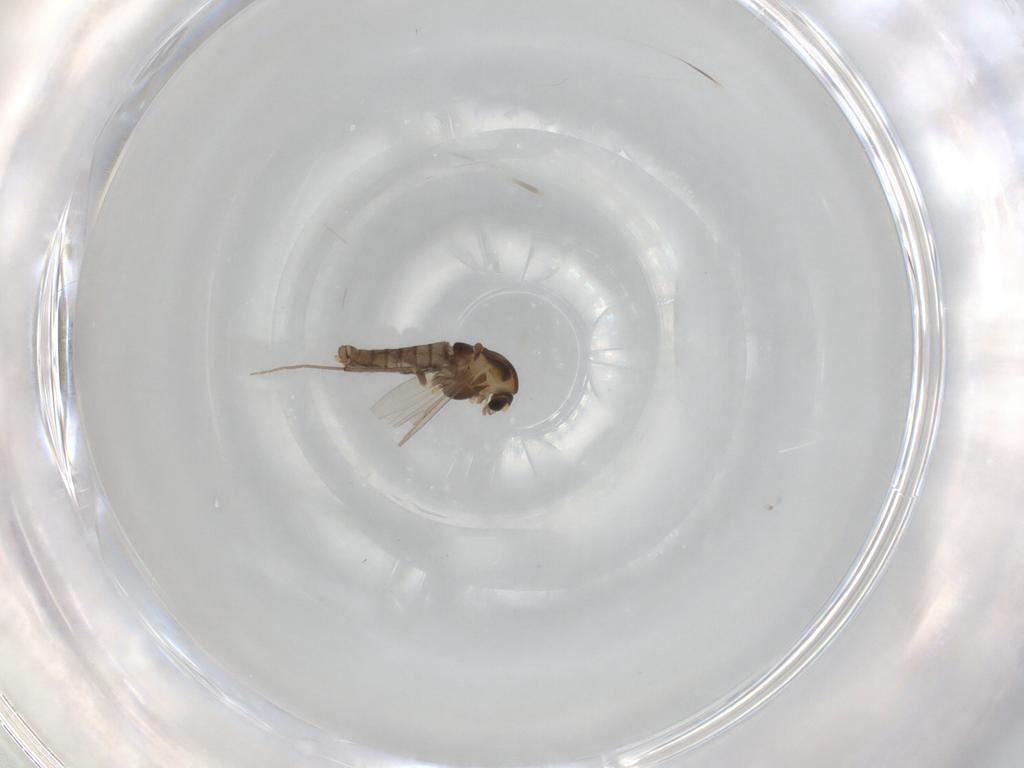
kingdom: Animalia
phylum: Arthropoda
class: Insecta
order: Diptera
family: Chironomidae
